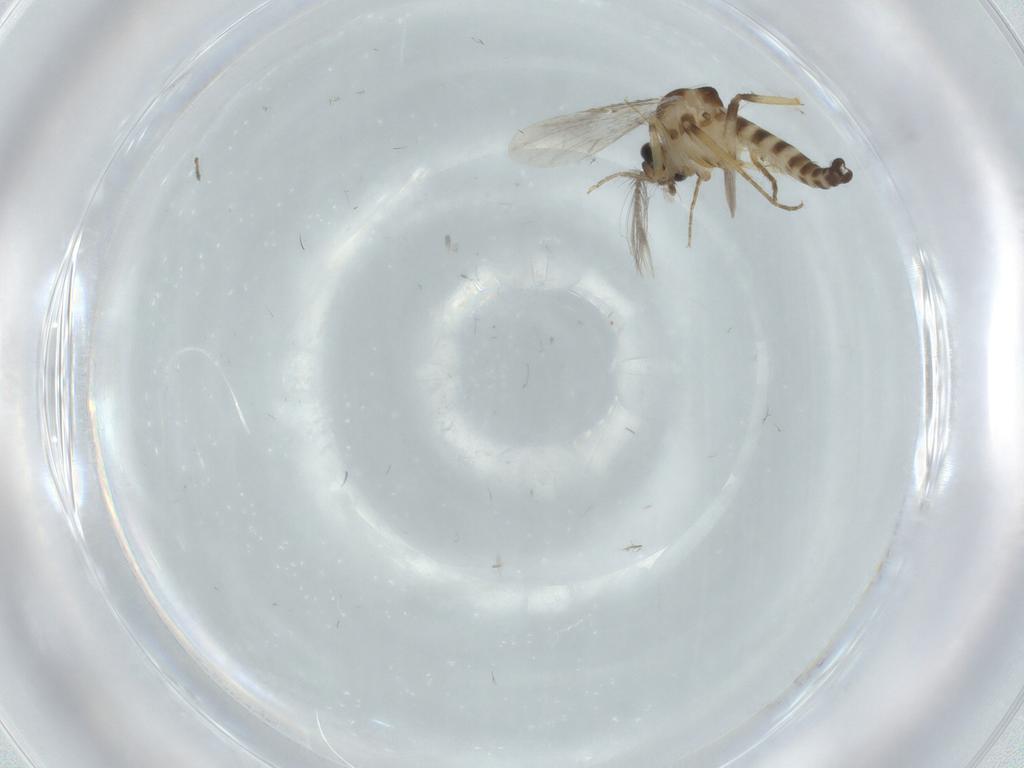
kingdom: Animalia
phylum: Arthropoda
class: Insecta
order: Diptera
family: Ceratopogonidae
